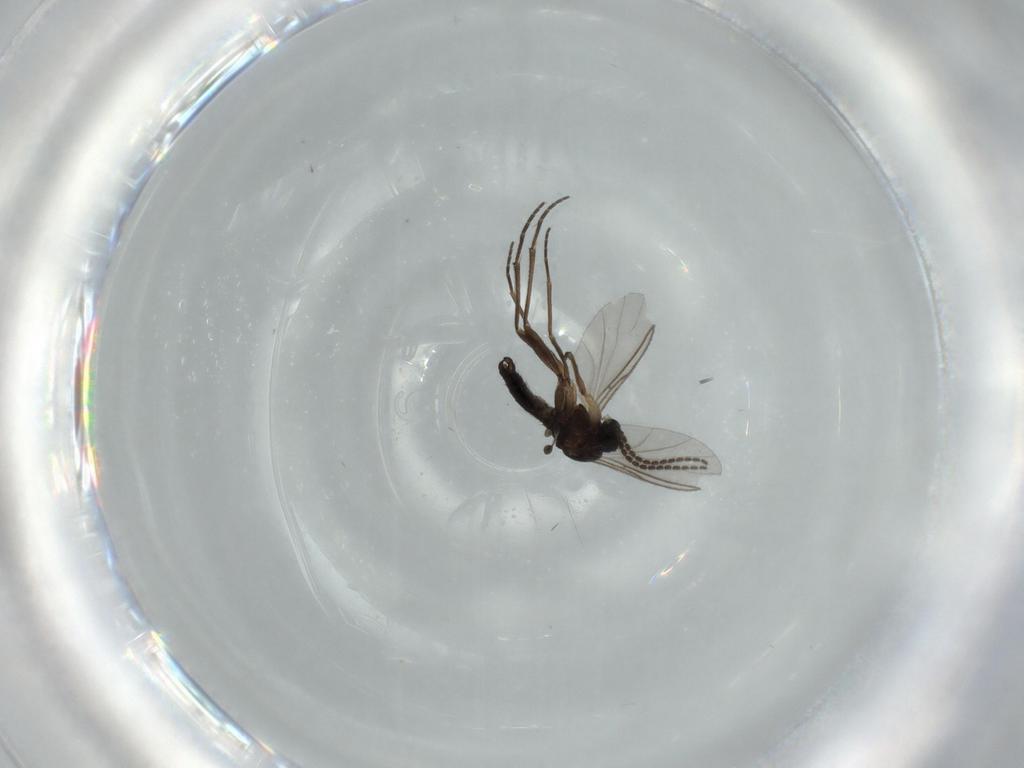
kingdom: Animalia
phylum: Arthropoda
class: Insecta
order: Diptera
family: Sciaridae
